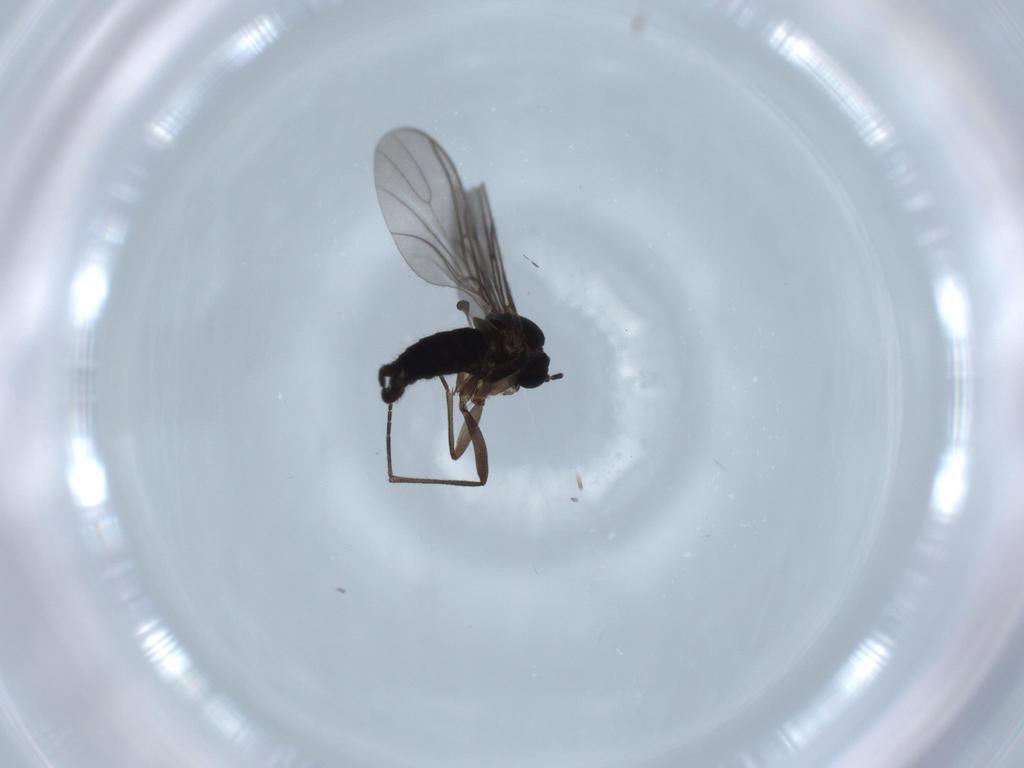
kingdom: Animalia
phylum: Arthropoda
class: Insecta
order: Diptera
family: Sciaridae
